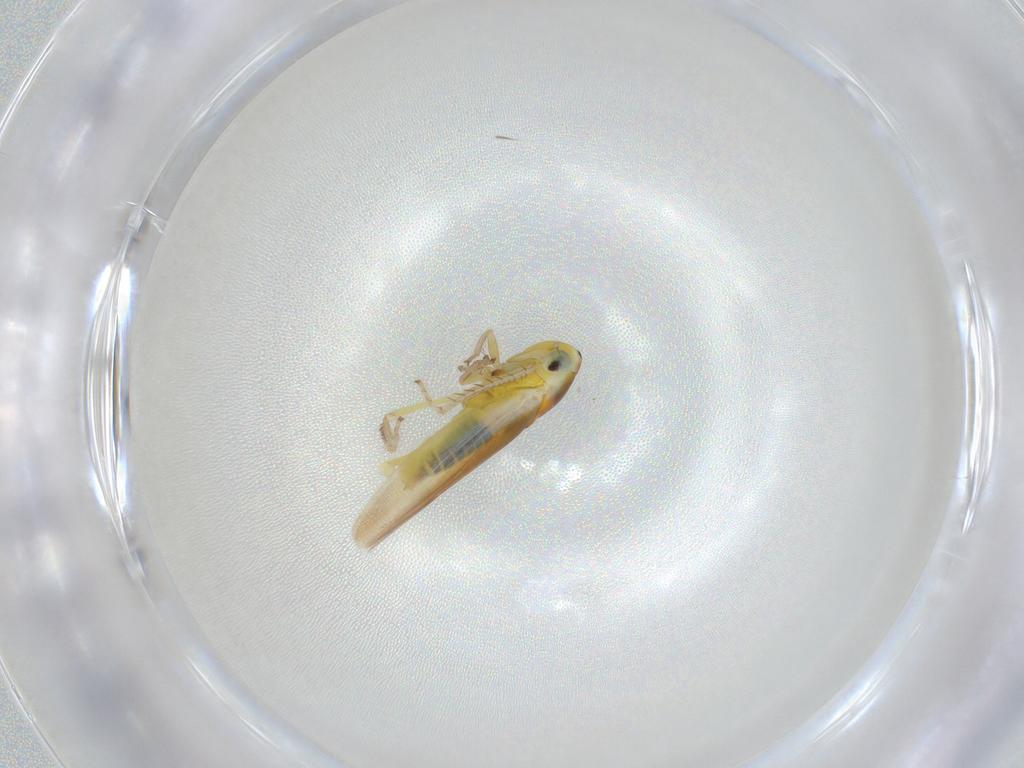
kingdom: Animalia
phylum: Arthropoda
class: Insecta
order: Hemiptera
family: Cicadellidae
